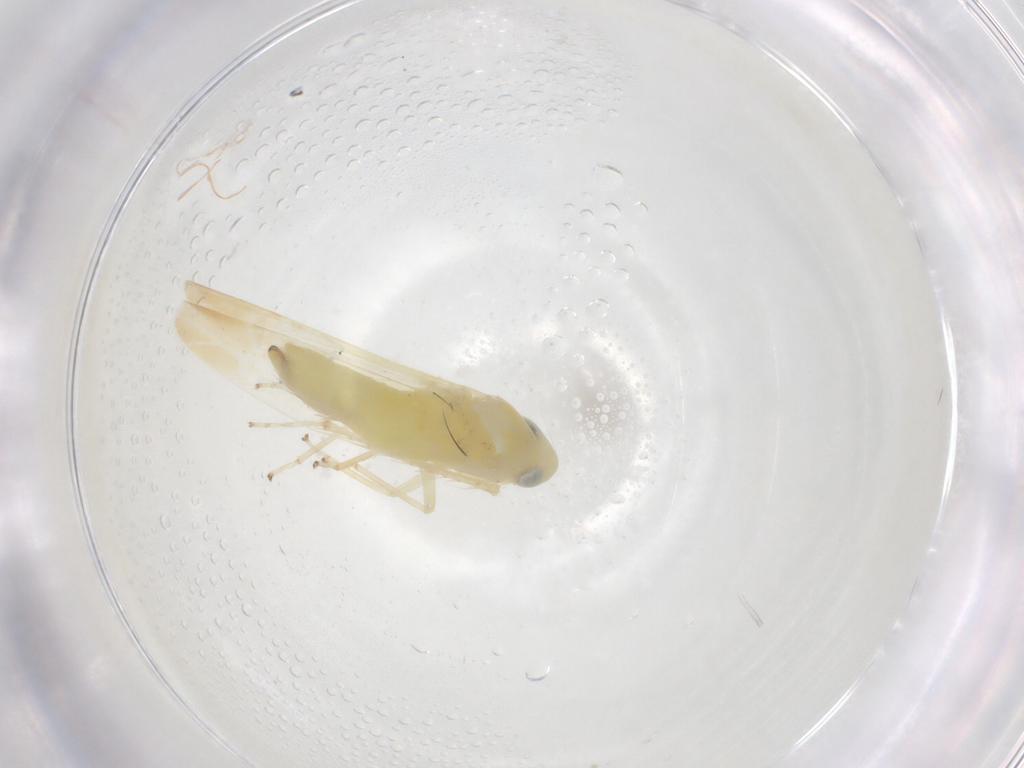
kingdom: Animalia
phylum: Arthropoda
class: Insecta
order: Hemiptera
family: Cicadellidae
